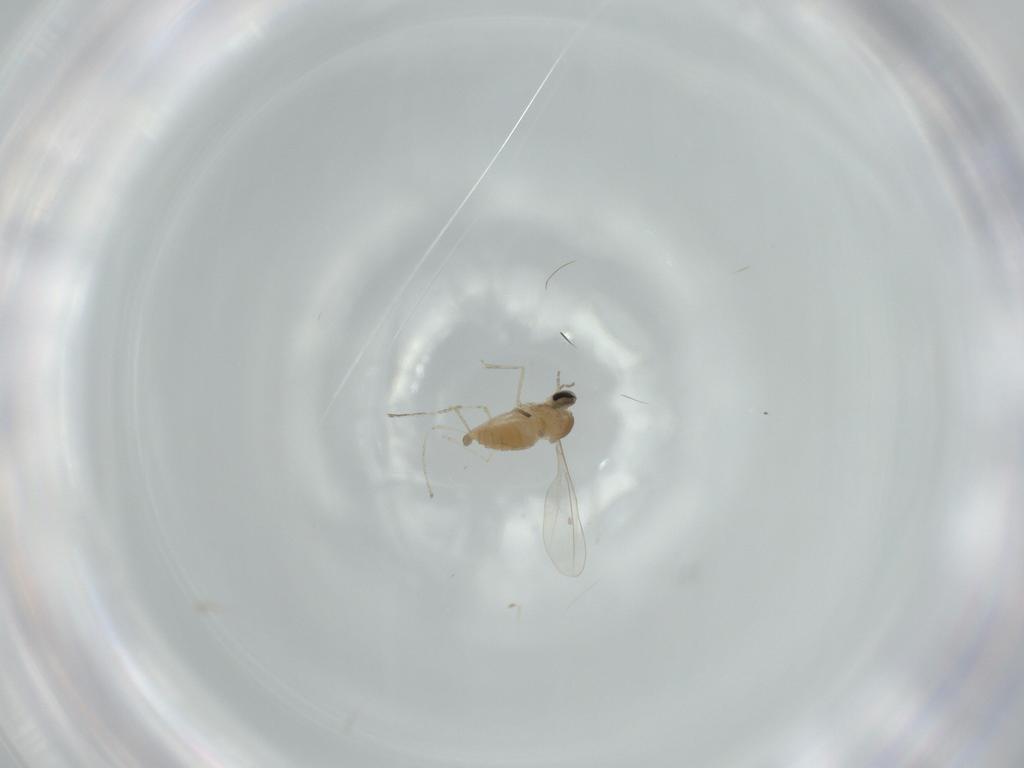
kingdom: Animalia
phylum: Arthropoda
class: Insecta
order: Diptera
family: Cecidomyiidae
